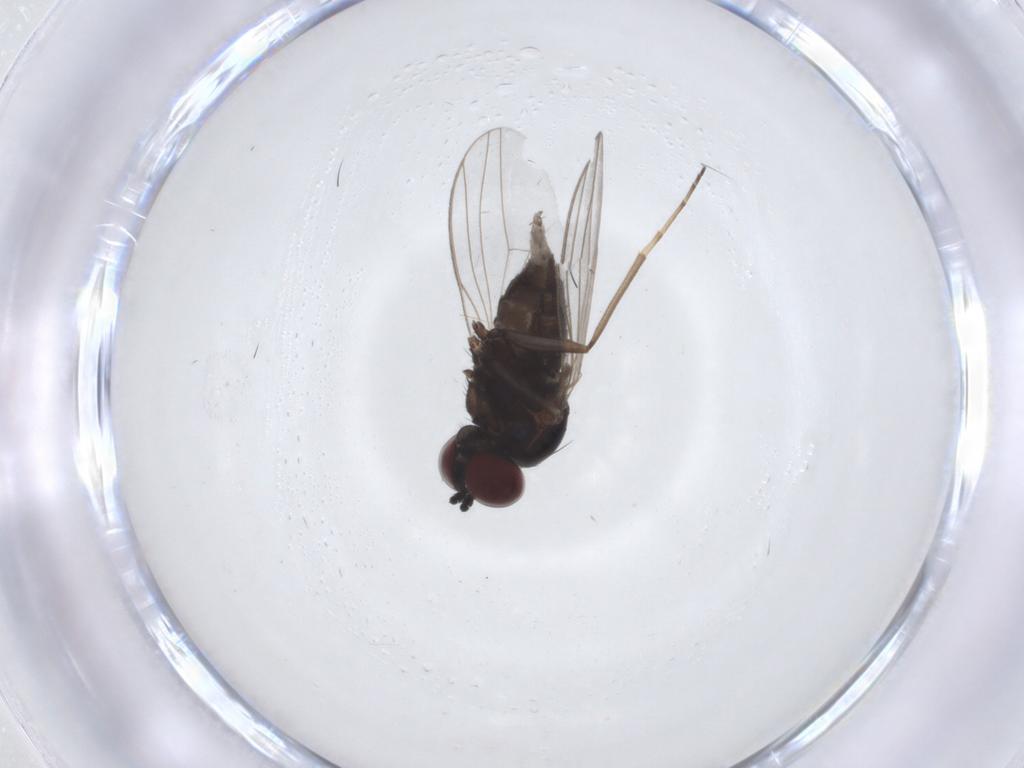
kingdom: Animalia
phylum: Arthropoda
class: Insecta
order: Diptera
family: Dolichopodidae
